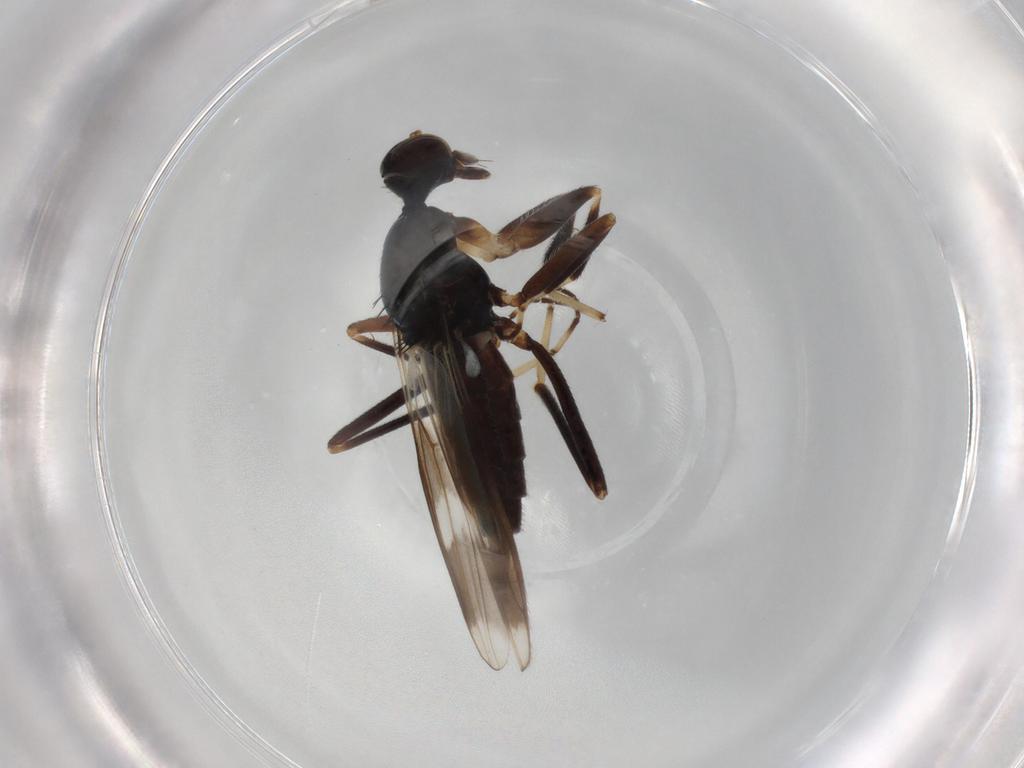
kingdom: Animalia
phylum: Arthropoda
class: Insecta
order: Diptera
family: Hybotidae
